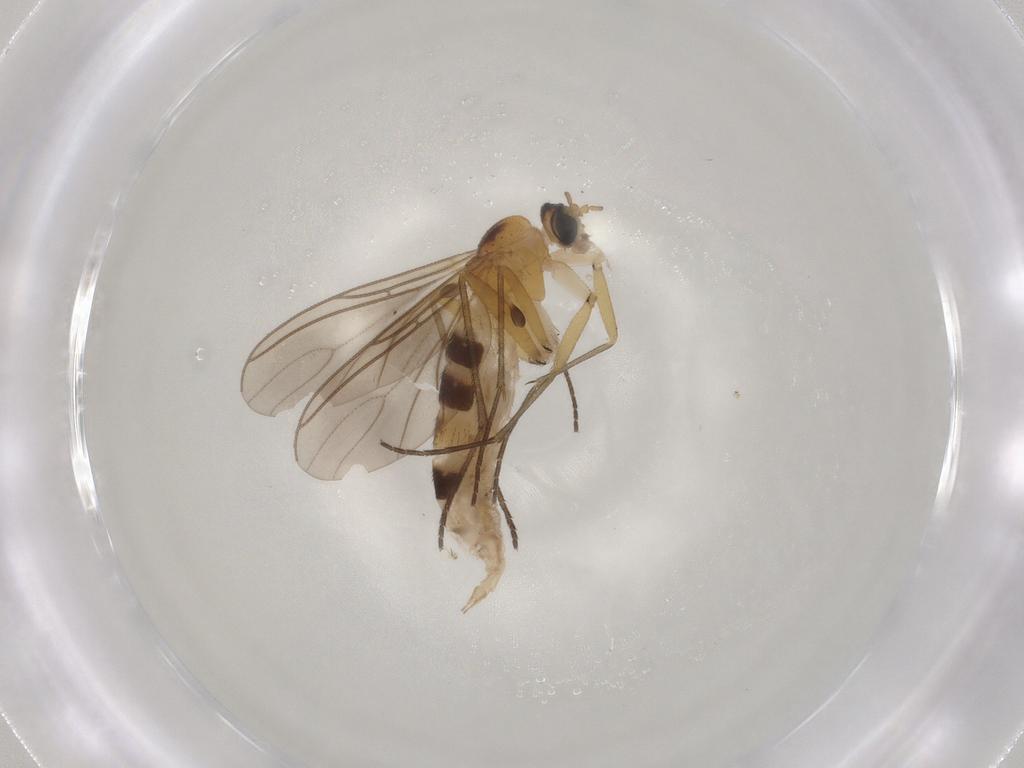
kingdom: Animalia
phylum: Arthropoda
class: Insecta
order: Diptera
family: Sciaridae
